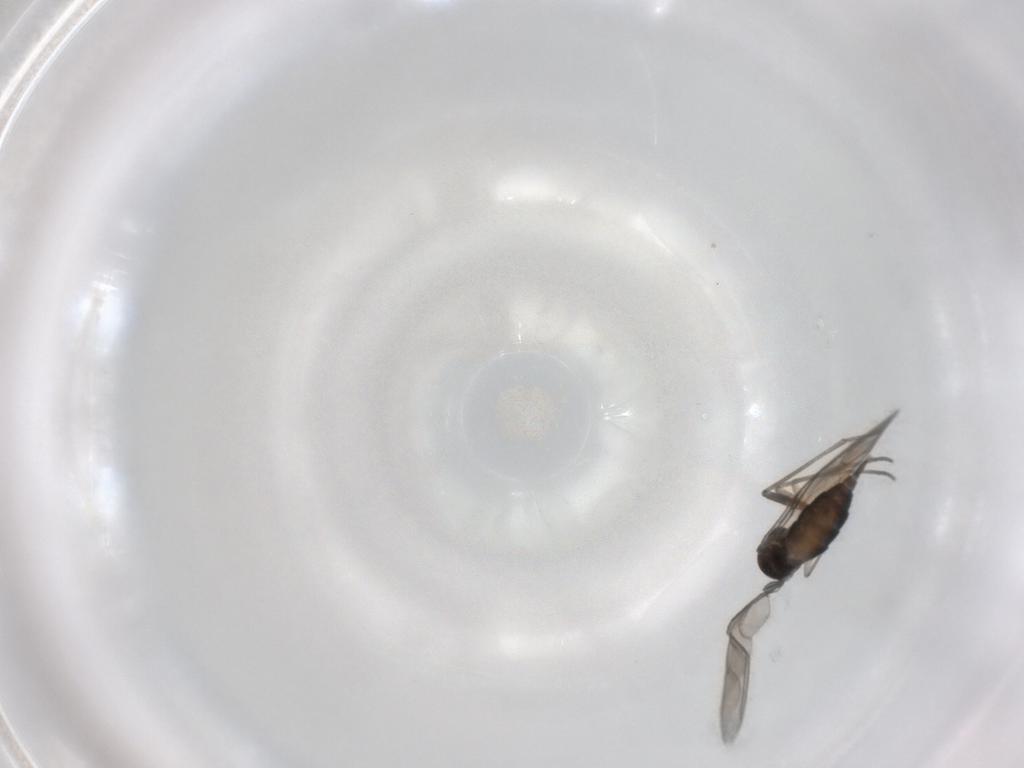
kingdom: Animalia
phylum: Arthropoda
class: Insecta
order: Diptera
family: Sciaridae
